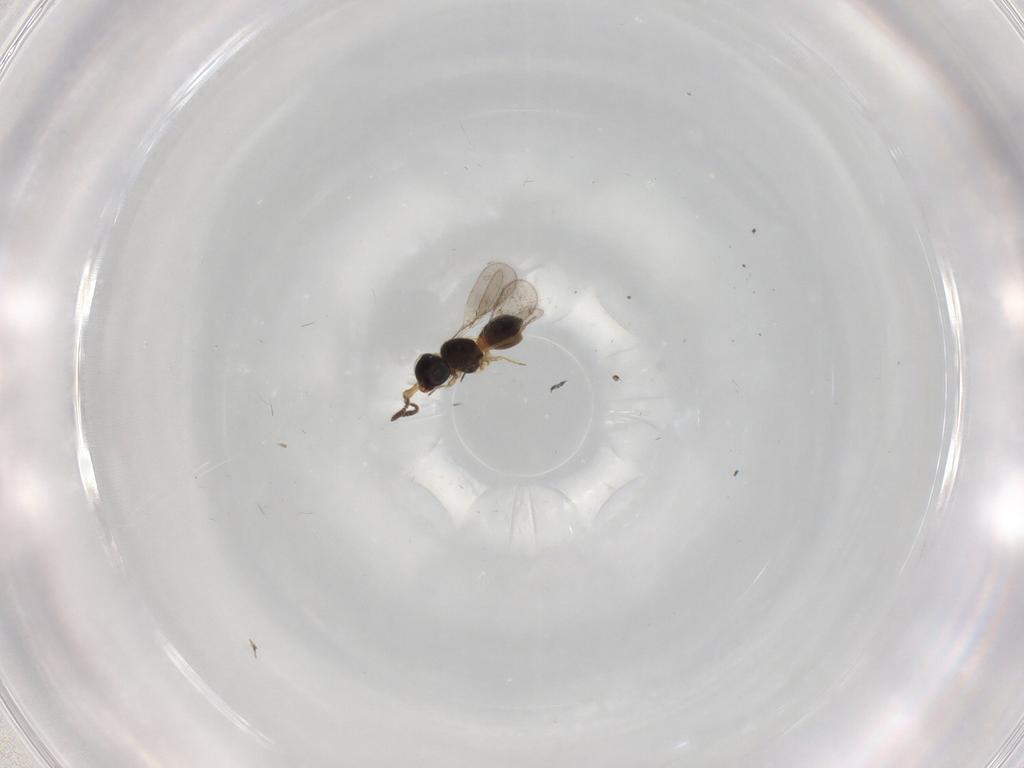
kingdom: Animalia
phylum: Arthropoda
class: Insecta
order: Hymenoptera
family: Scelionidae
